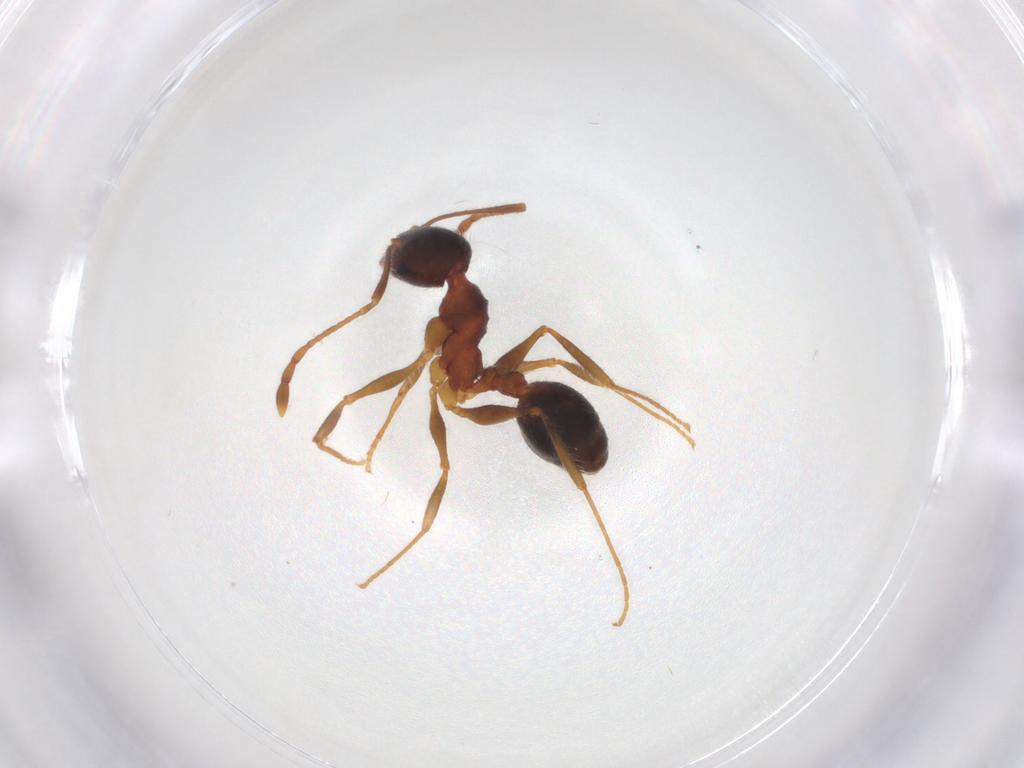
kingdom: Animalia
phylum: Arthropoda
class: Insecta
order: Hymenoptera
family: Formicidae
